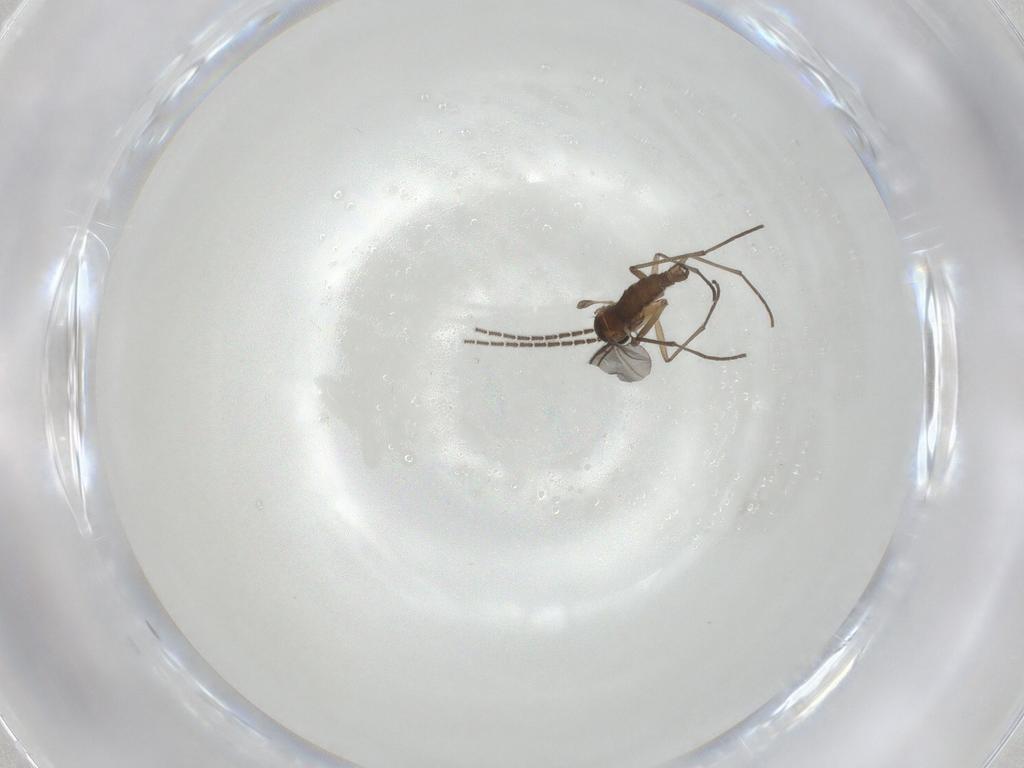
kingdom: Animalia
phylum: Arthropoda
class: Insecta
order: Diptera
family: Sciaridae
